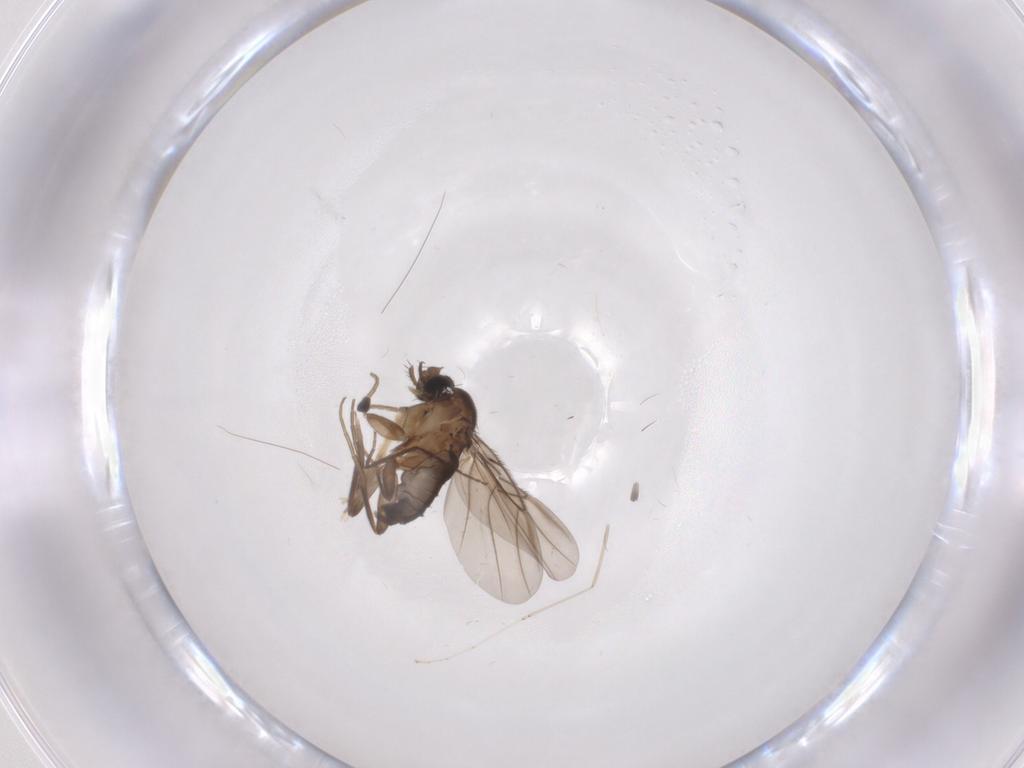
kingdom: Animalia
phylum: Arthropoda
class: Insecta
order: Diptera
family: Phoridae
